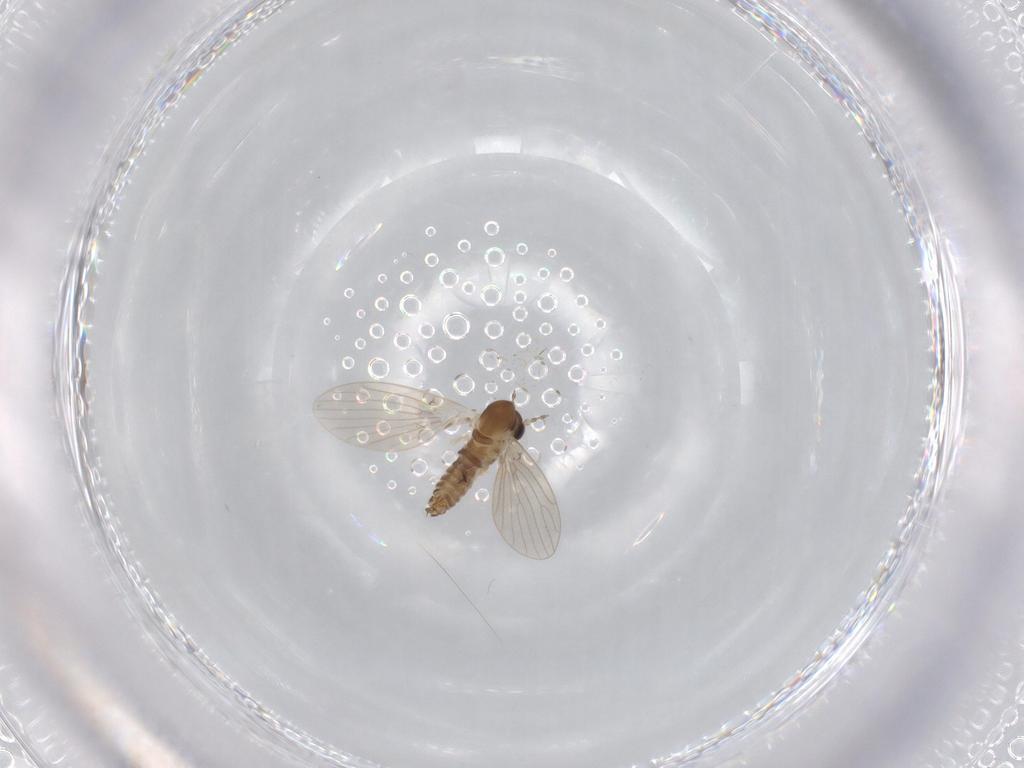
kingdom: Animalia
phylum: Arthropoda
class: Insecta
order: Diptera
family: Psychodidae
